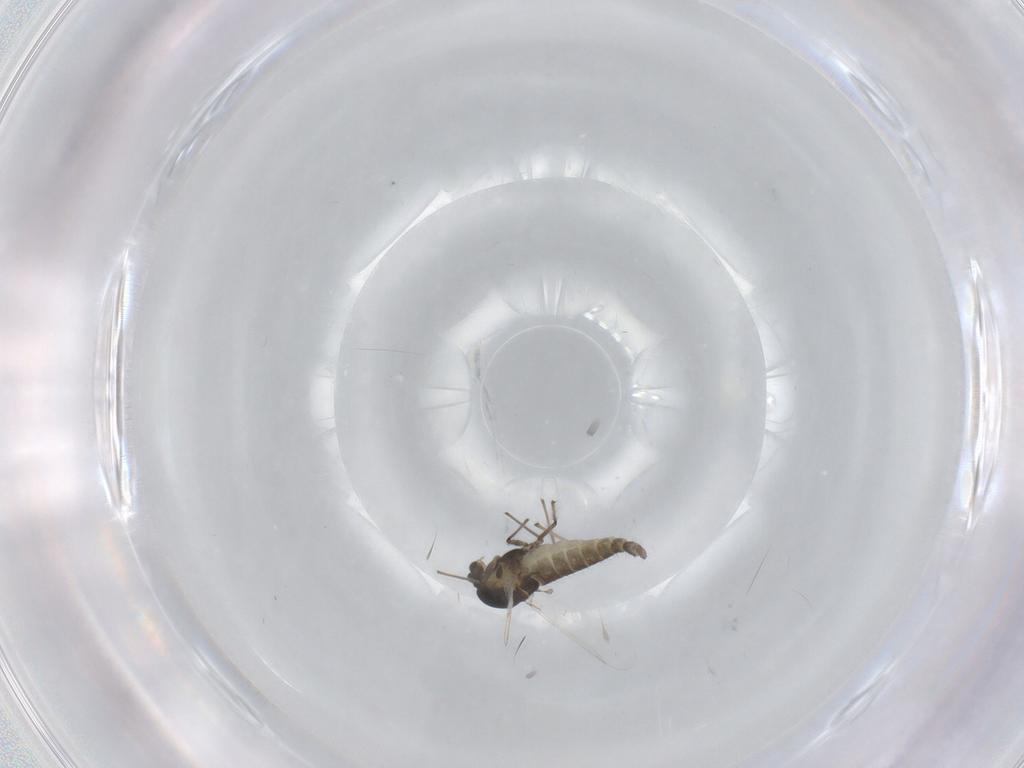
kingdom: Animalia
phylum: Arthropoda
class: Insecta
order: Diptera
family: Chironomidae
